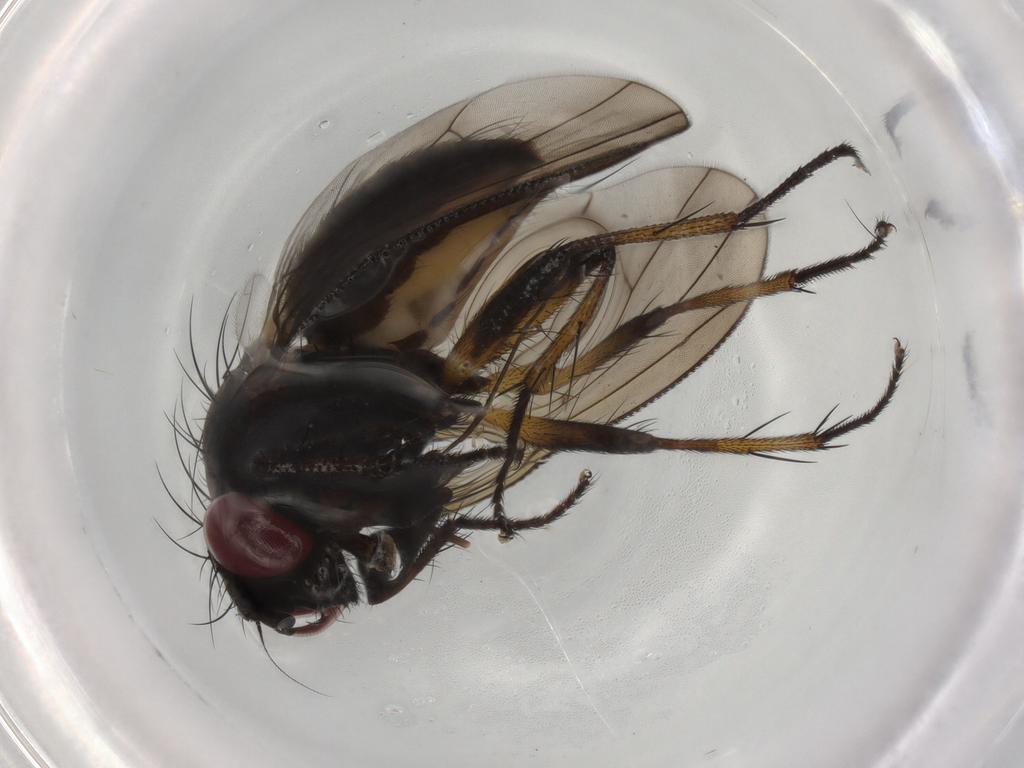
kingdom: Animalia
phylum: Arthropoda
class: Insecta
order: Diptera
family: Muscidae
